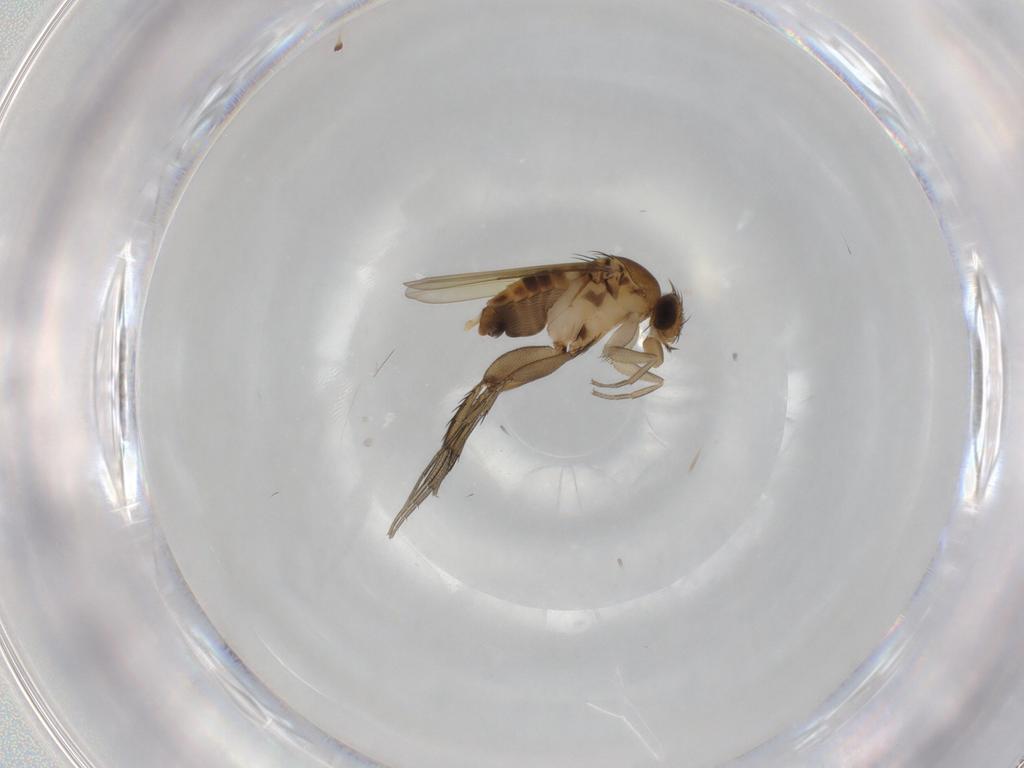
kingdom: Animalia
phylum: Arthropoda
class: Insecta
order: Diptera
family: Phoridae
